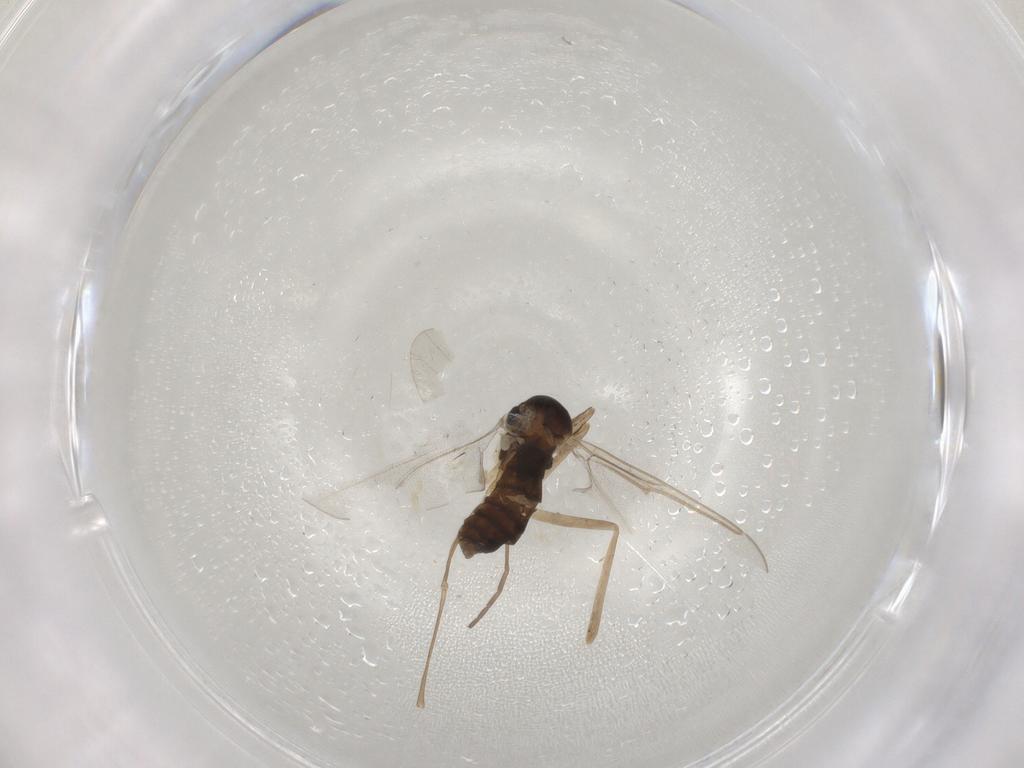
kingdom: Animalia
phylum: Arthropoda
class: Insecta
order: Diptera
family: Cecidomyiidae
